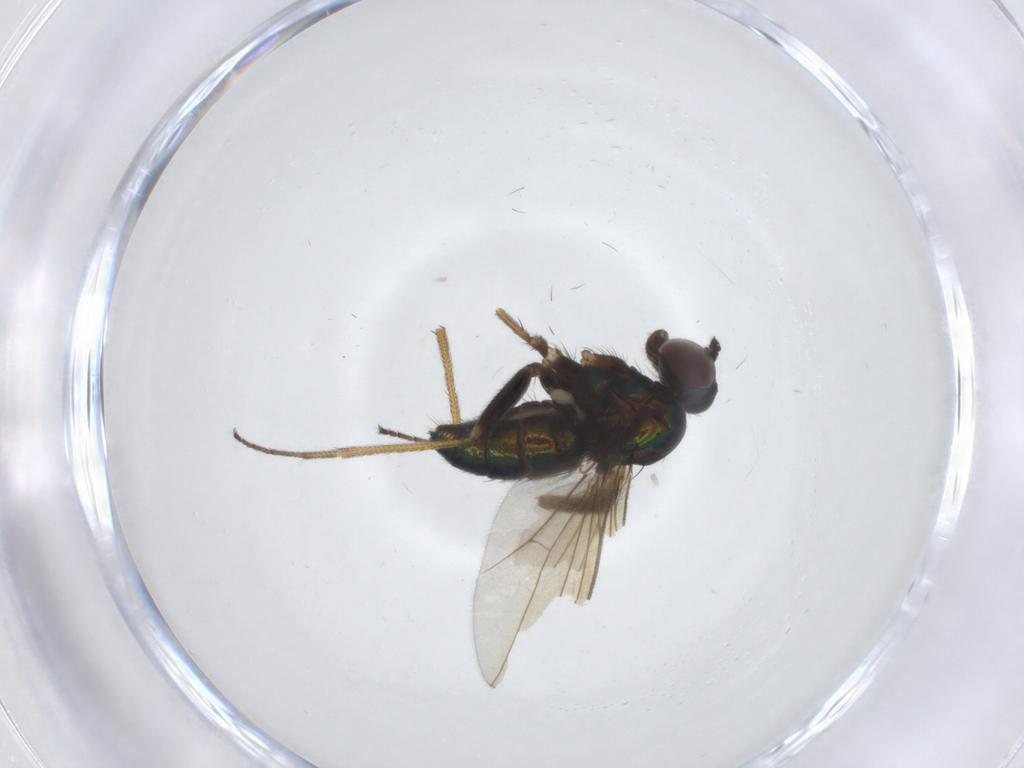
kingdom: Animalia
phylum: Arthropoda
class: Insecta
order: Diptera
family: Dolichopodidae
